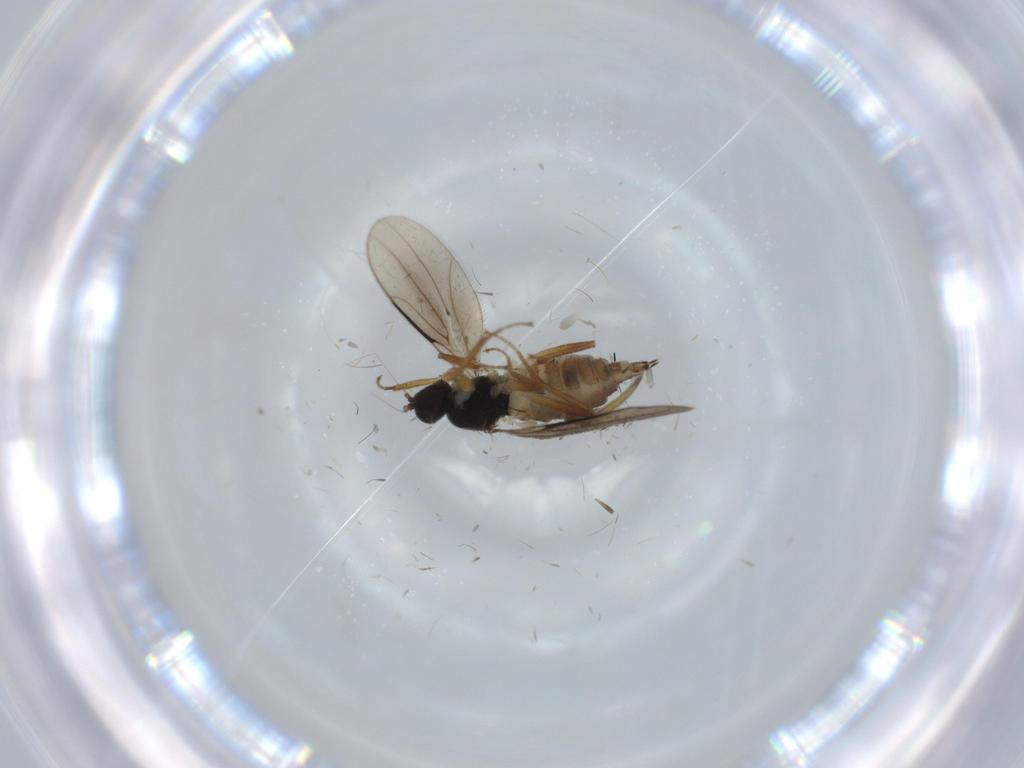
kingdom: Animalia
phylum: Arthropoda
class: Insecta
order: Diptera
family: Hybotidae
